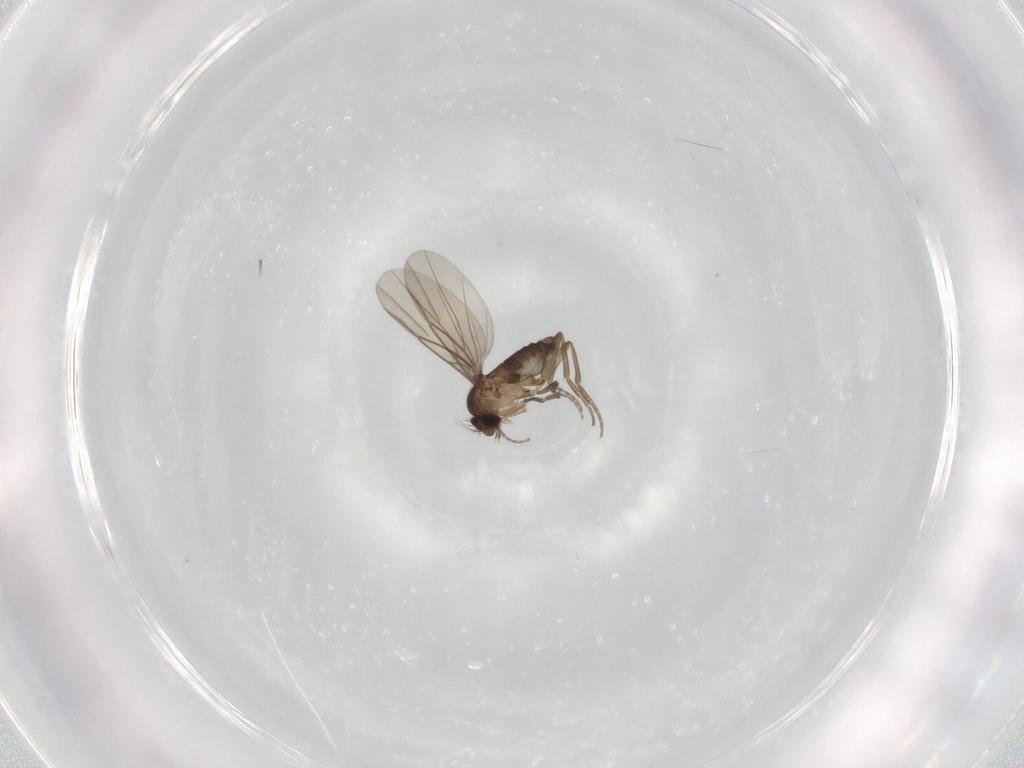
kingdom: Animalia
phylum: Arthropoda
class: Insecta
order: Diptera
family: Phoridae
